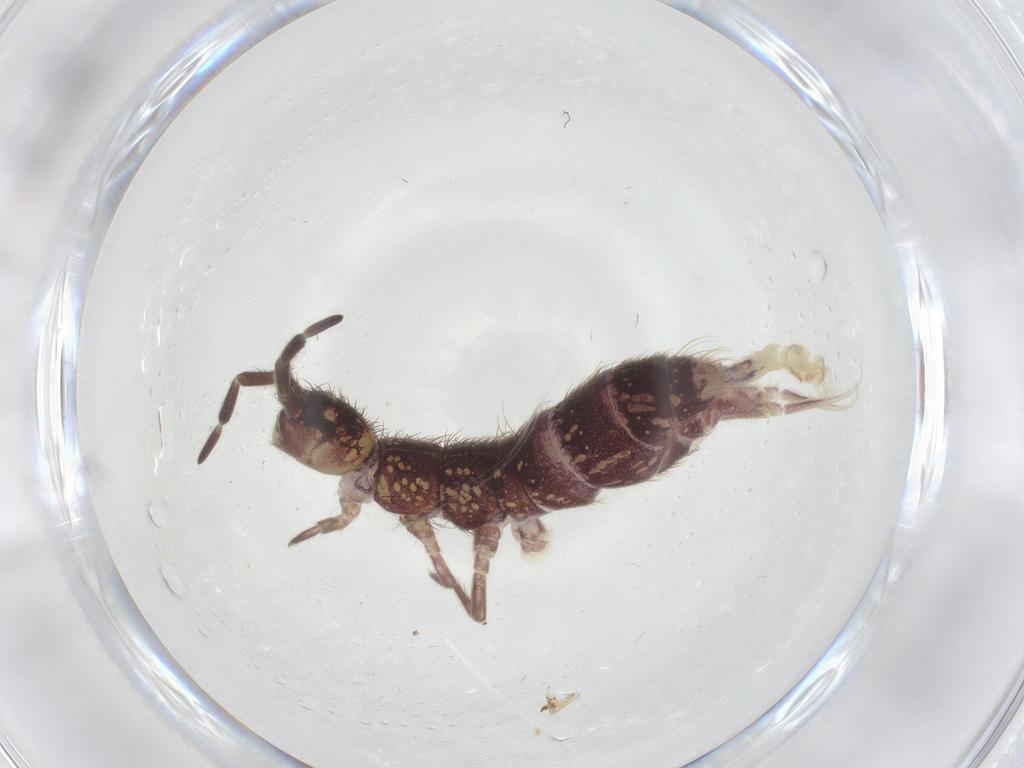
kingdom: Animalia
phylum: Arthropoda
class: Collembola
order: Entomobryomorpha
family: Isotomidae
